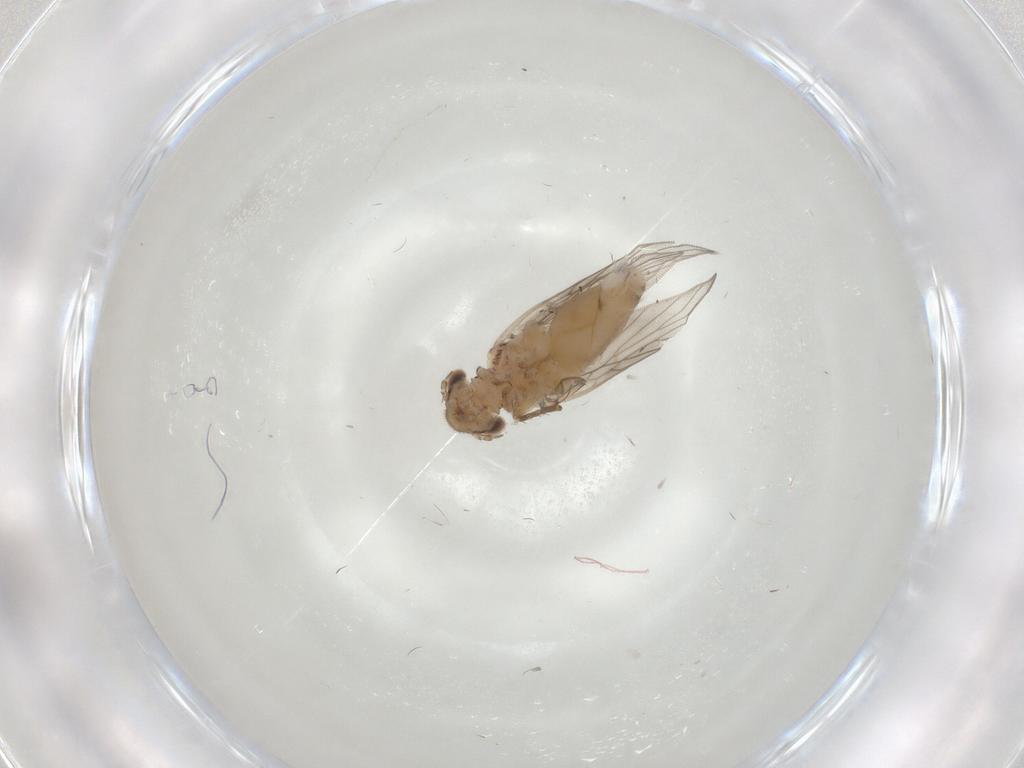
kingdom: Animalia
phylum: Arthropoda
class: Insecta
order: Psocodea
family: Lepidopsocidae
